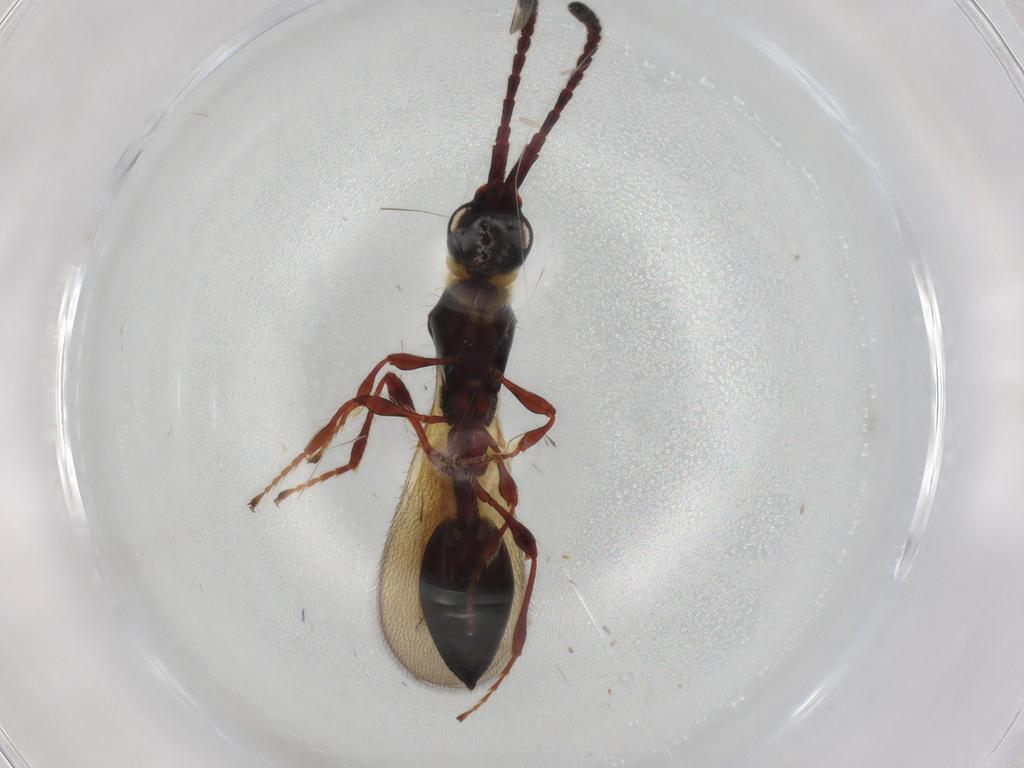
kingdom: Animalia
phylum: Arthropoda
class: Insecta
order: Hymenoptera
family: Diapriidae
